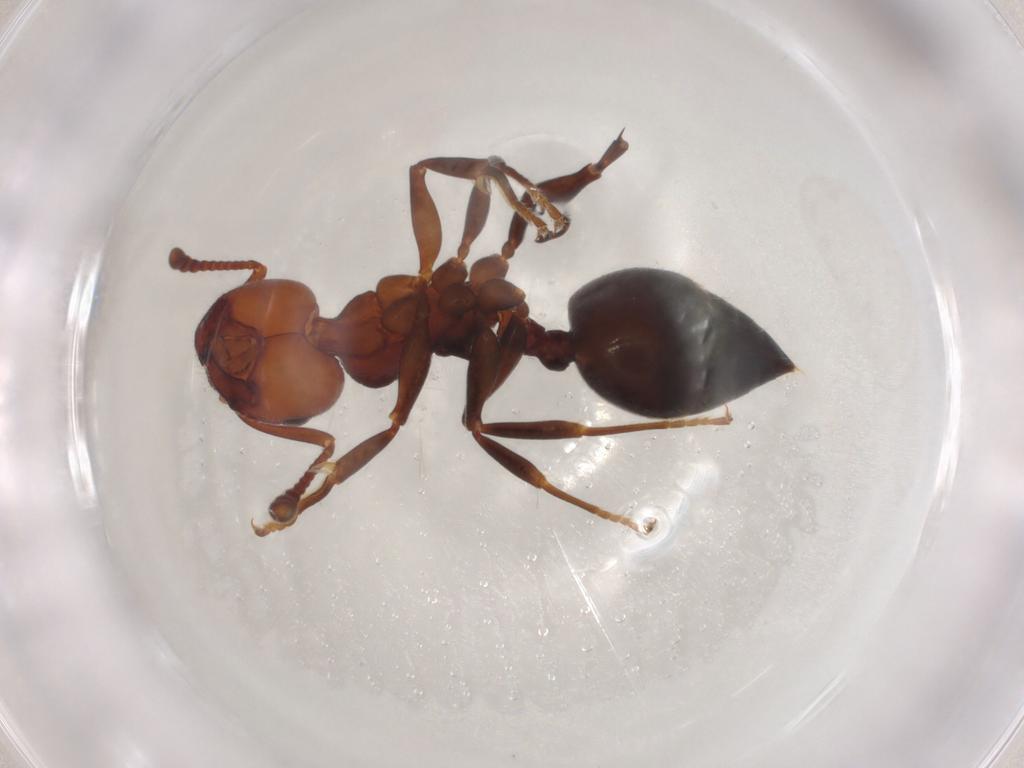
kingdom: Animalia
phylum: Arthropoda
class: Insecta
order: Hymenoptera
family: Formicidae
